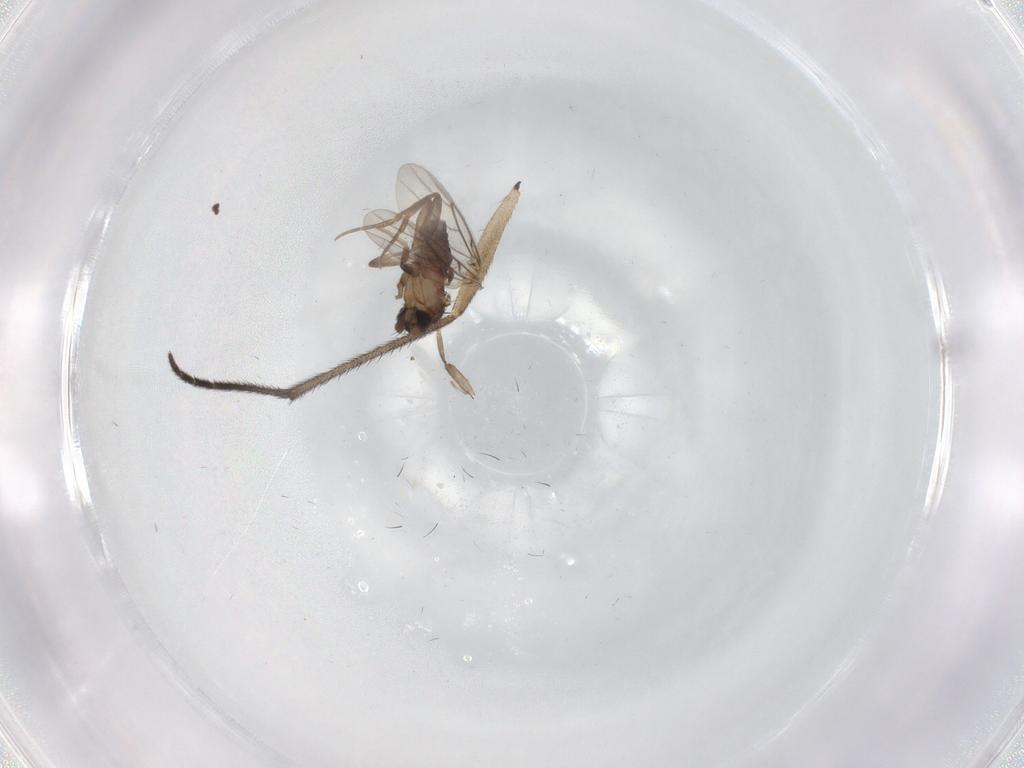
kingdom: Animalia
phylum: Arthropoda
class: Insecta
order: Diptera
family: Sciaridae
